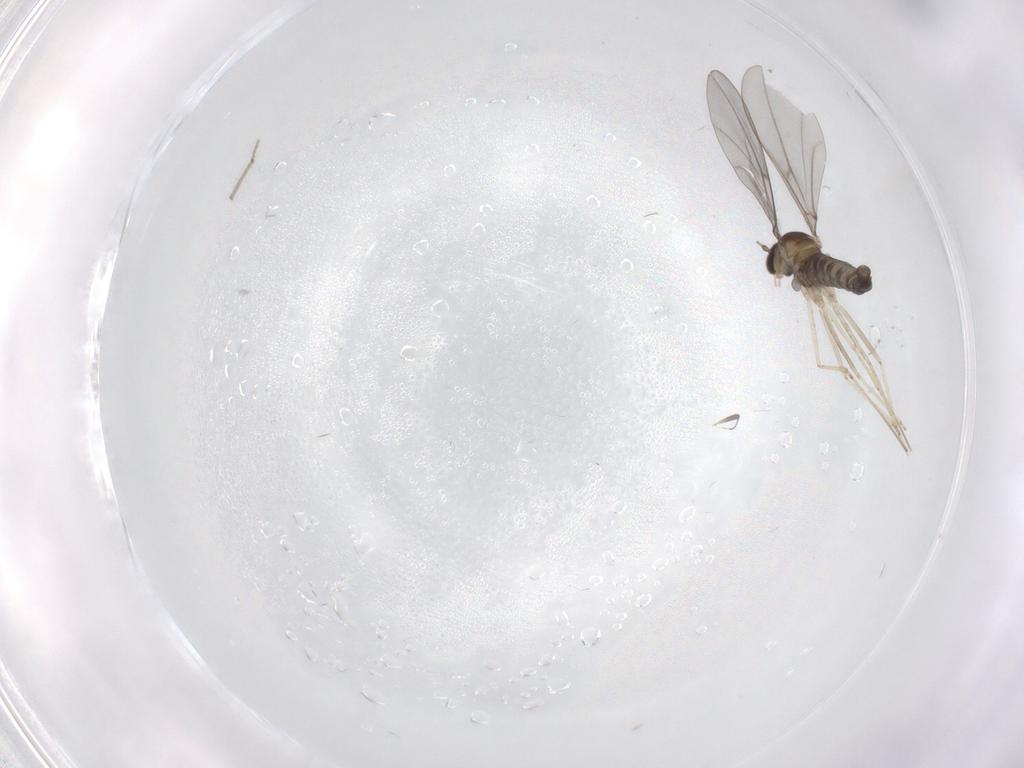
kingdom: Animalia
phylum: Arthropoda
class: Insecta
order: Diptera
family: Cecidomyiidae
